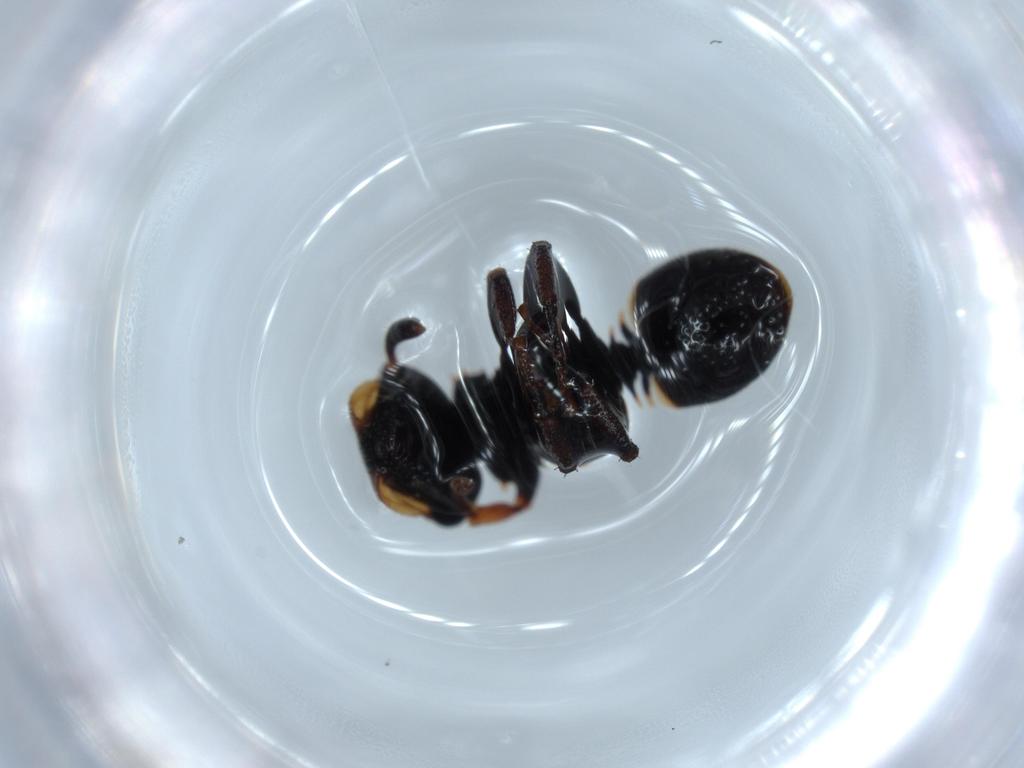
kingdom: Animalia
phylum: Arthropoda
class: Insecta
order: Hymenoptera
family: Formicidae
